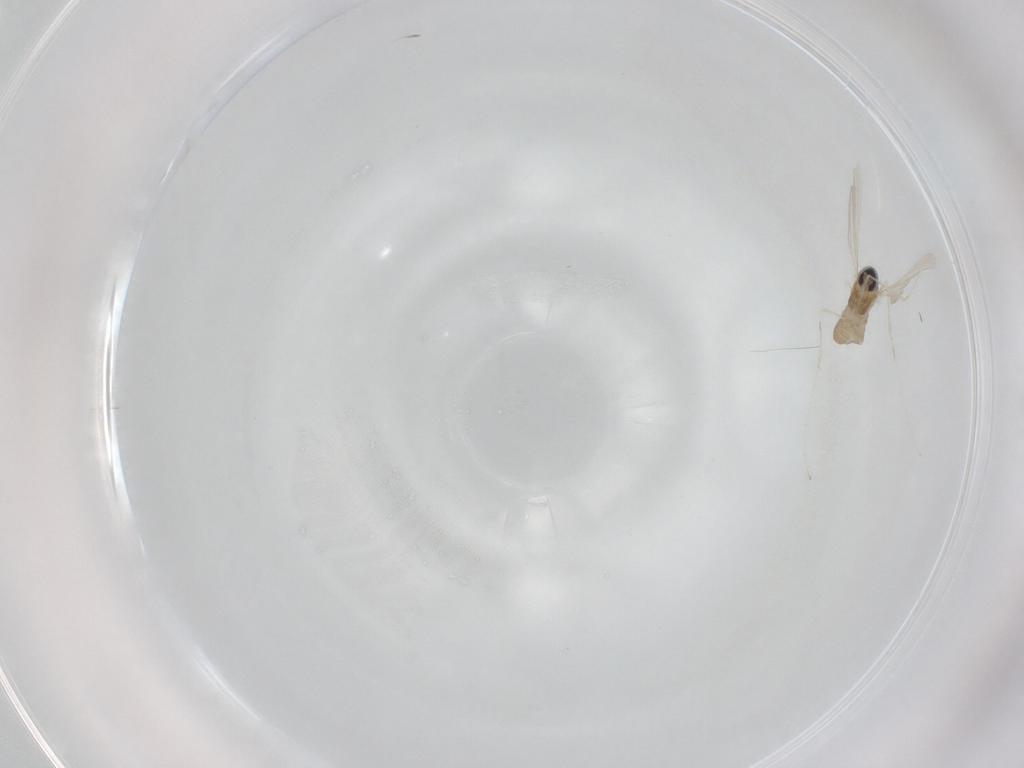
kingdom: Animalia
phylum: Arthropoda
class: Insecta
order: Diptera
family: Cecidomyiidae
